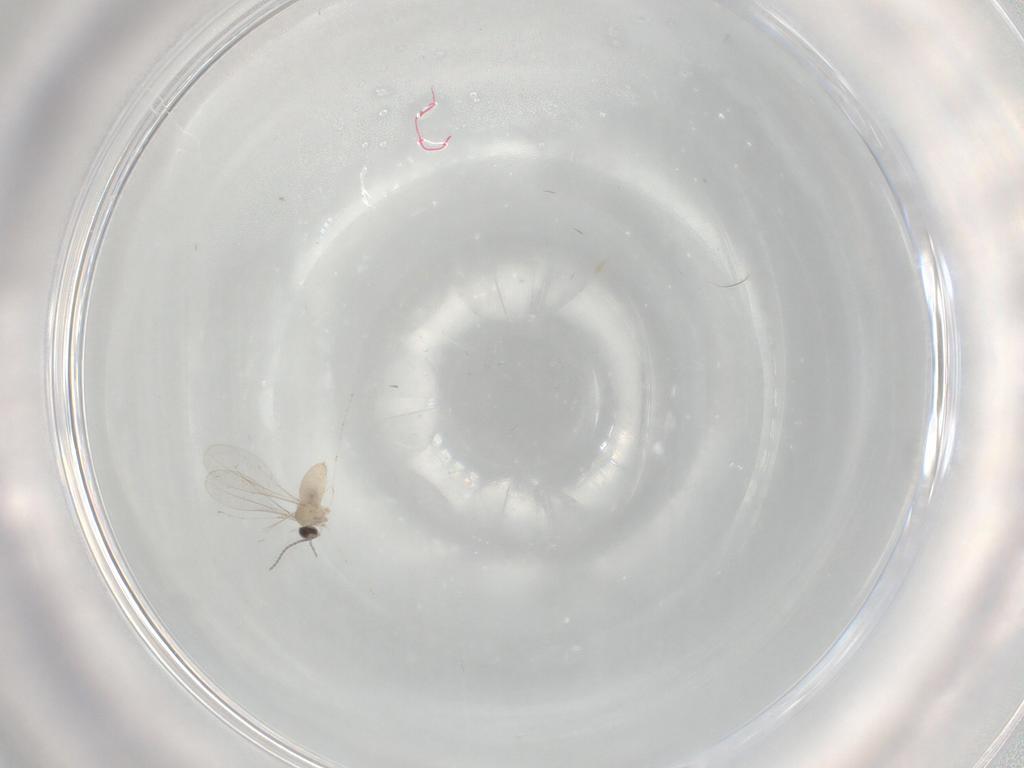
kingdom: Animalia
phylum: Arthropoda
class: Insecta
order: Diptera
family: Cecidomyiidae
